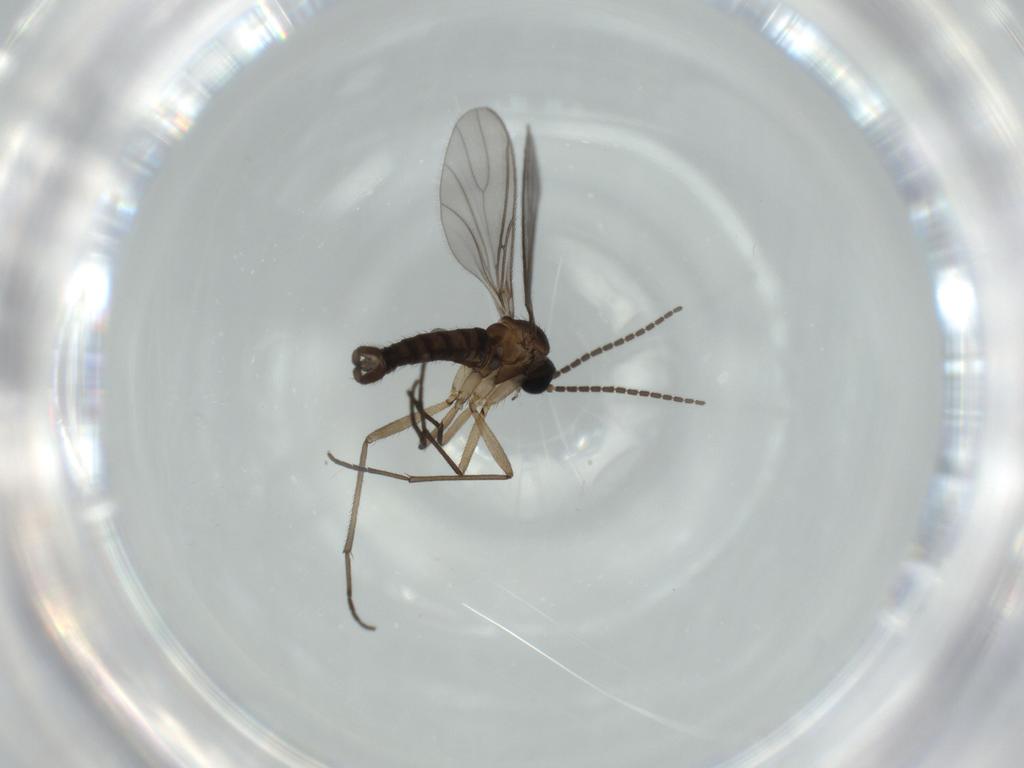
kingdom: Animalia
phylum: Arthropoda
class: Insecta
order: Diptera
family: Sciaridae
